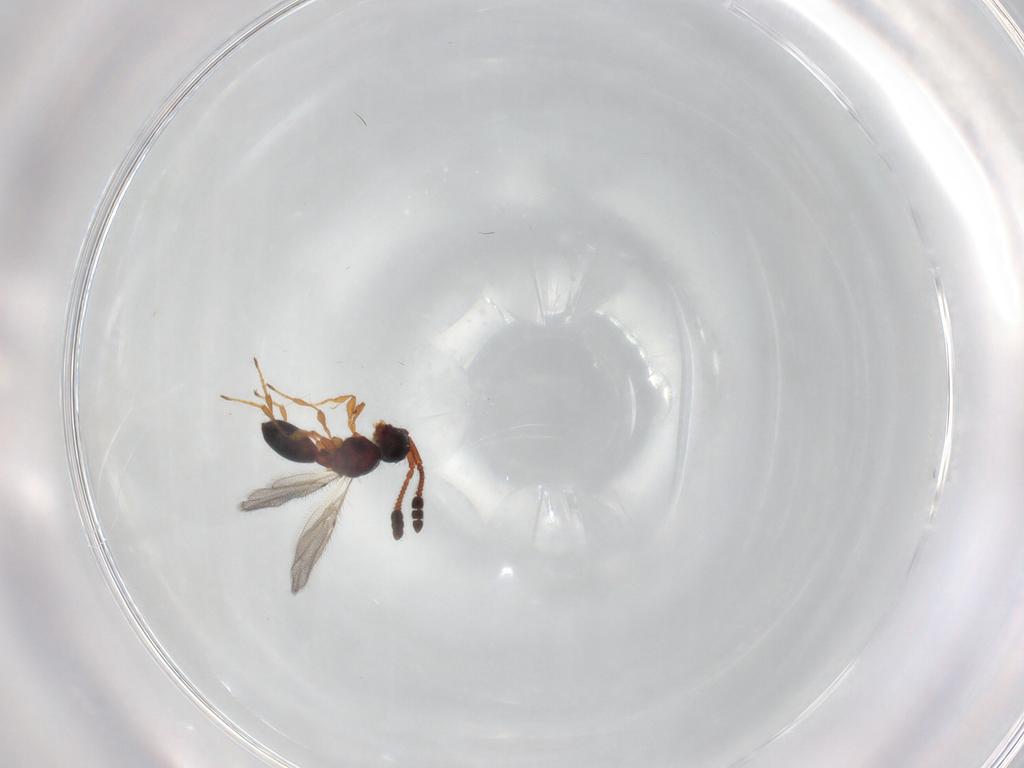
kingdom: Animalia
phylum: Arthropoda
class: Insecta
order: Hymenoptera
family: Diapriidae
